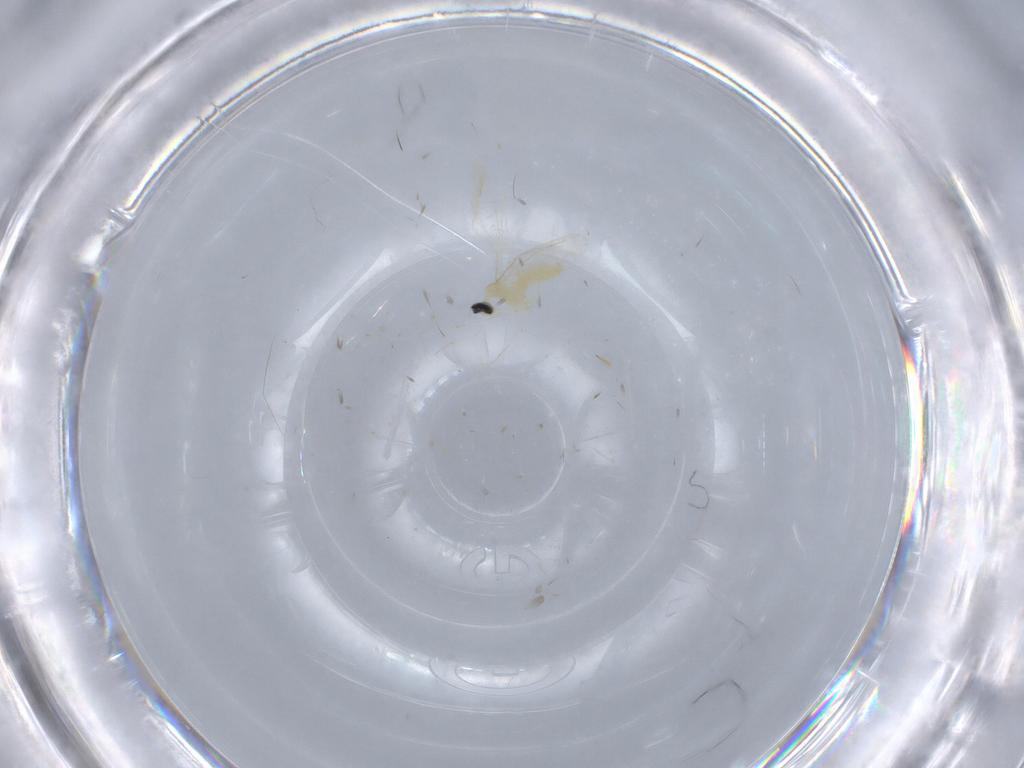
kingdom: Animalia
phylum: Arthropoda
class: Insecta
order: Diptera
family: Cecidomyiidae
